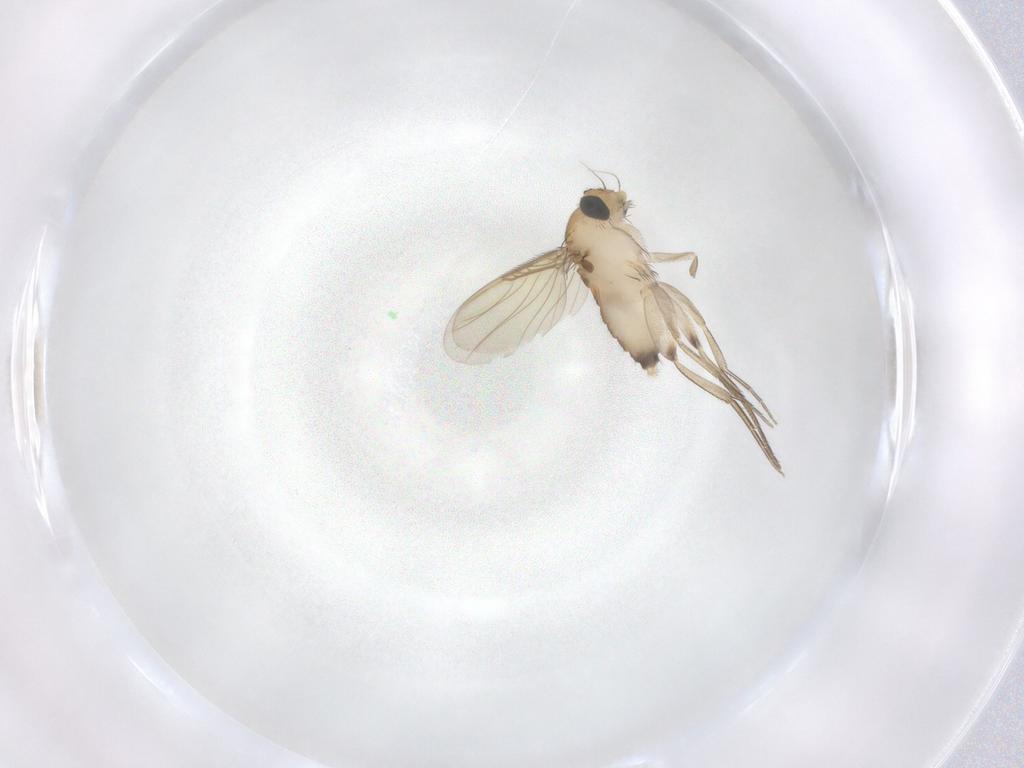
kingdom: Animalia
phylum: Arthropoda
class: Insecta
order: Diptera
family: Phoridae
